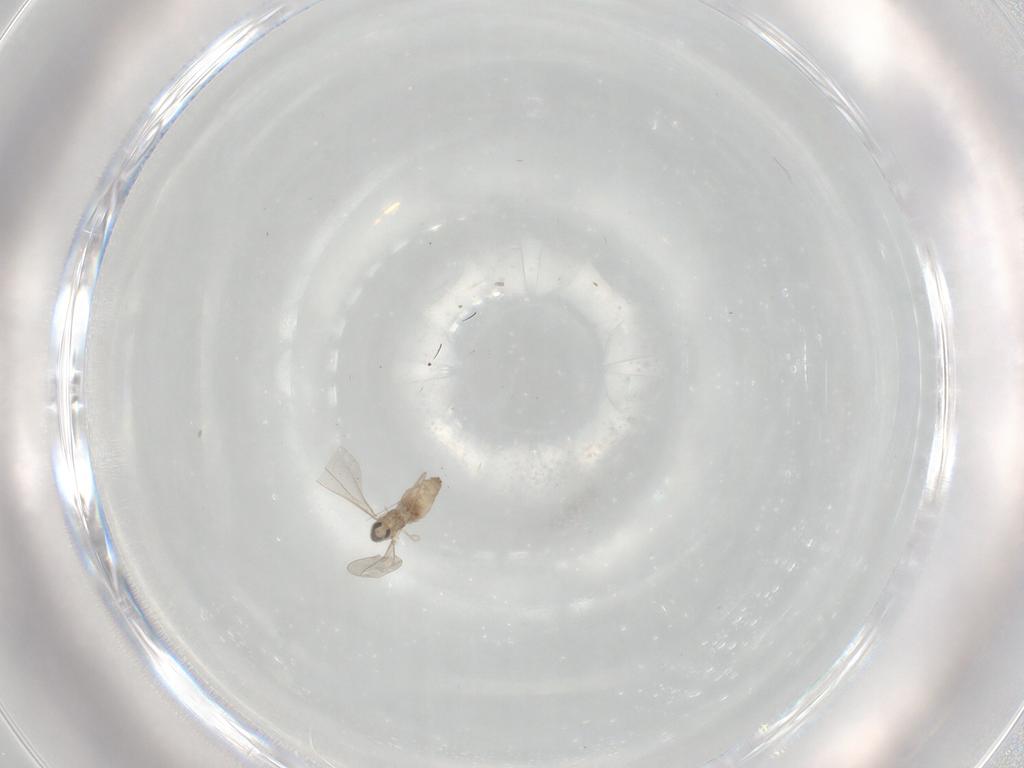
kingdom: Animalia
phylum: Arthropoda
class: Insecta
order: Diptera
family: Cecidomyiidae
